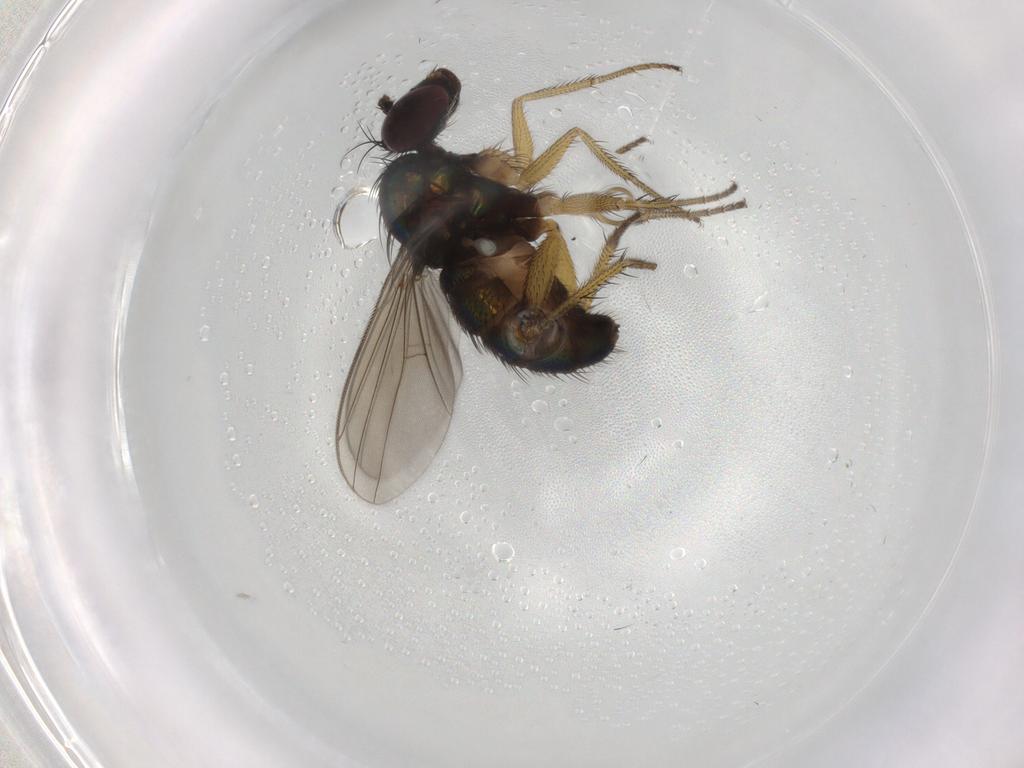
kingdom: Animalia
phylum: Arthropoda
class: Insecta
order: Diptera
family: Dolichopodidae
